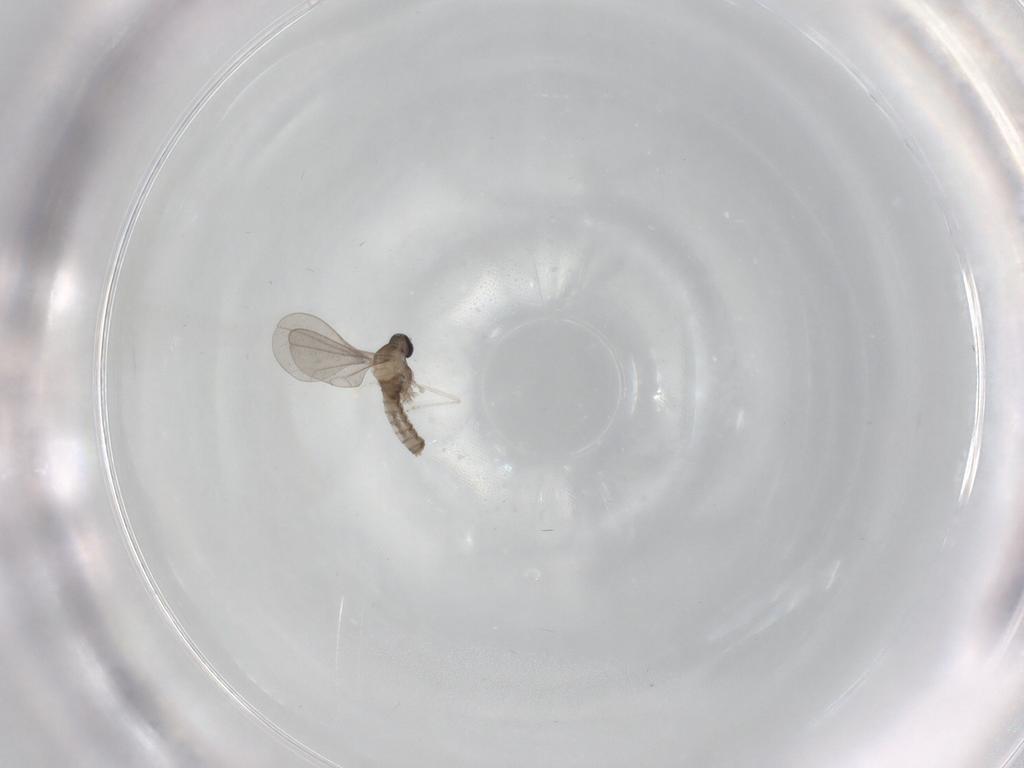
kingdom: Animalia
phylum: Arthropoda
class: Insecta
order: Diptera
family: Cecidomyiidae
